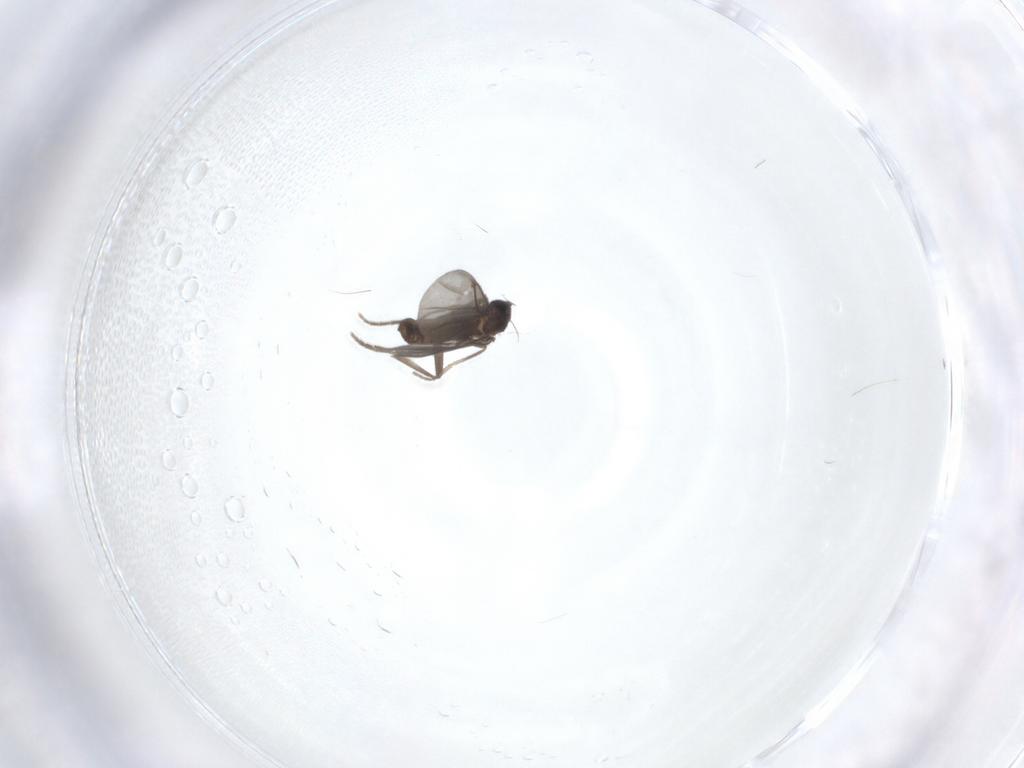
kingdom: Animalia
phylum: Arthropoda
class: Insecta
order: Diptera
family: Phoridae
